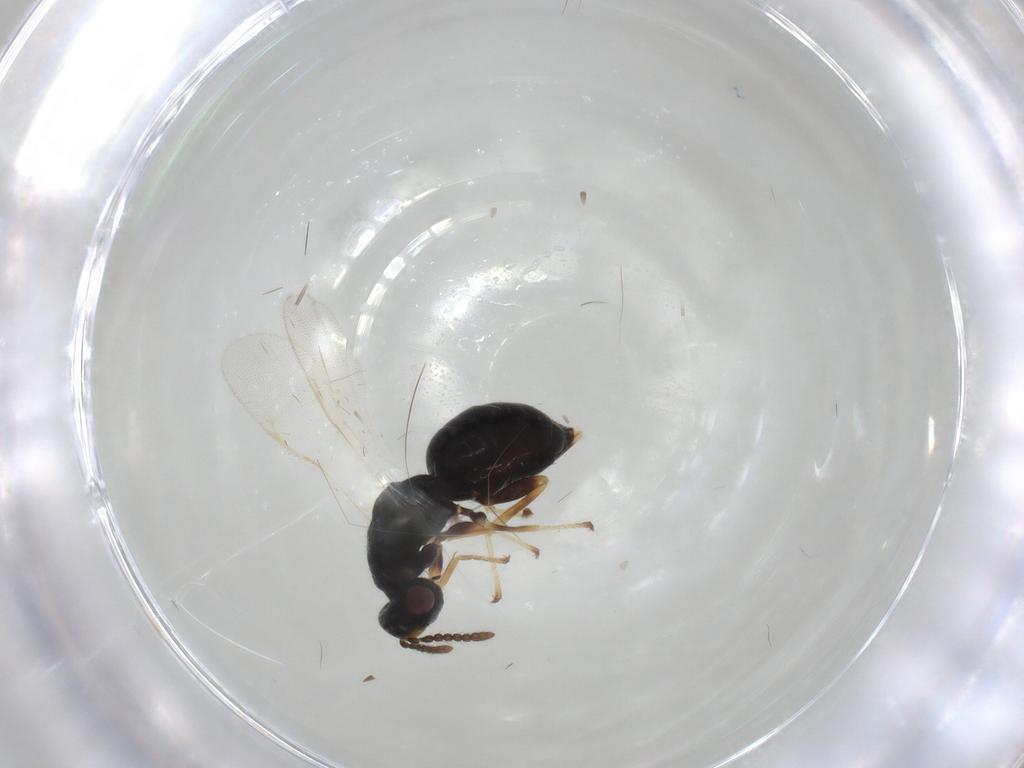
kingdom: Animalia
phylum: Arthropoda
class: Insecta
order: Hymenoptera
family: Eurytomidae
